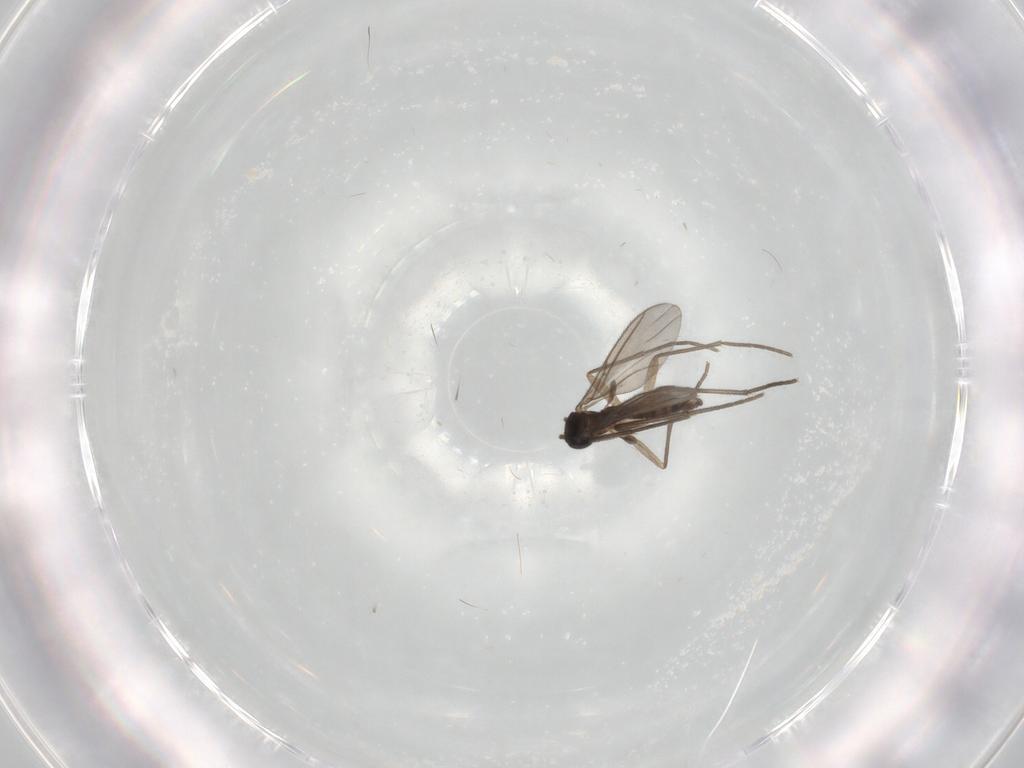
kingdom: Animalia
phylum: Arthropoda
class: Insecta
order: Diptera
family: Sciaridae
